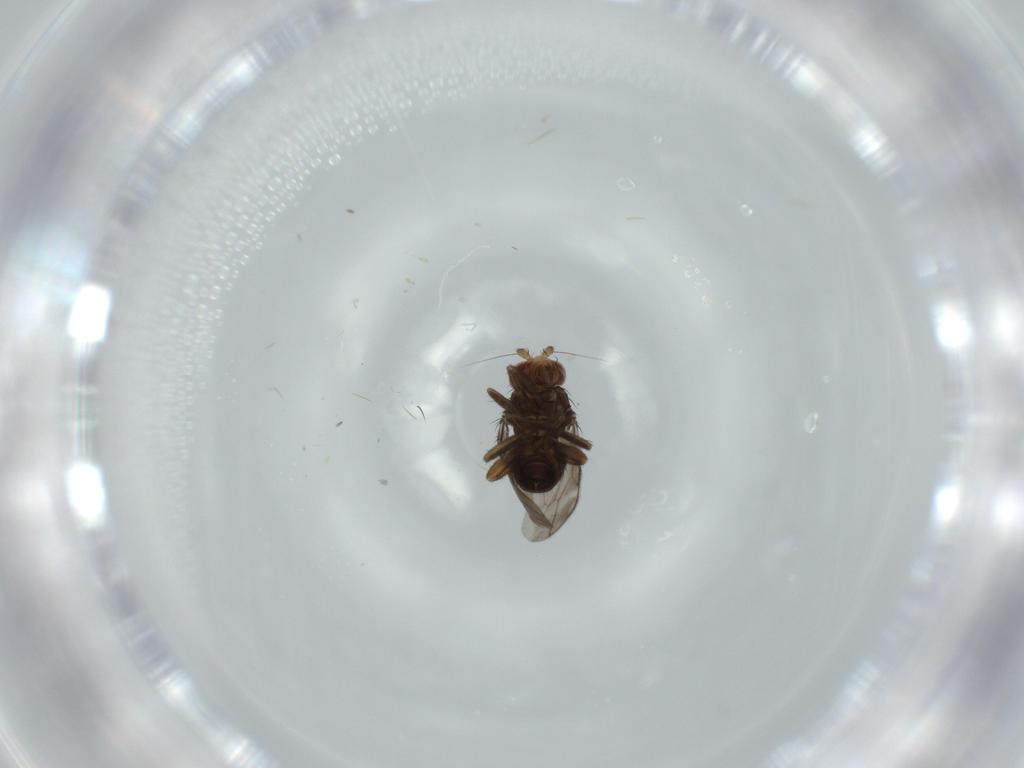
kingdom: Animalia
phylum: Arthropoda
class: Insecta
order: Diptera
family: Sphaeroceridae
